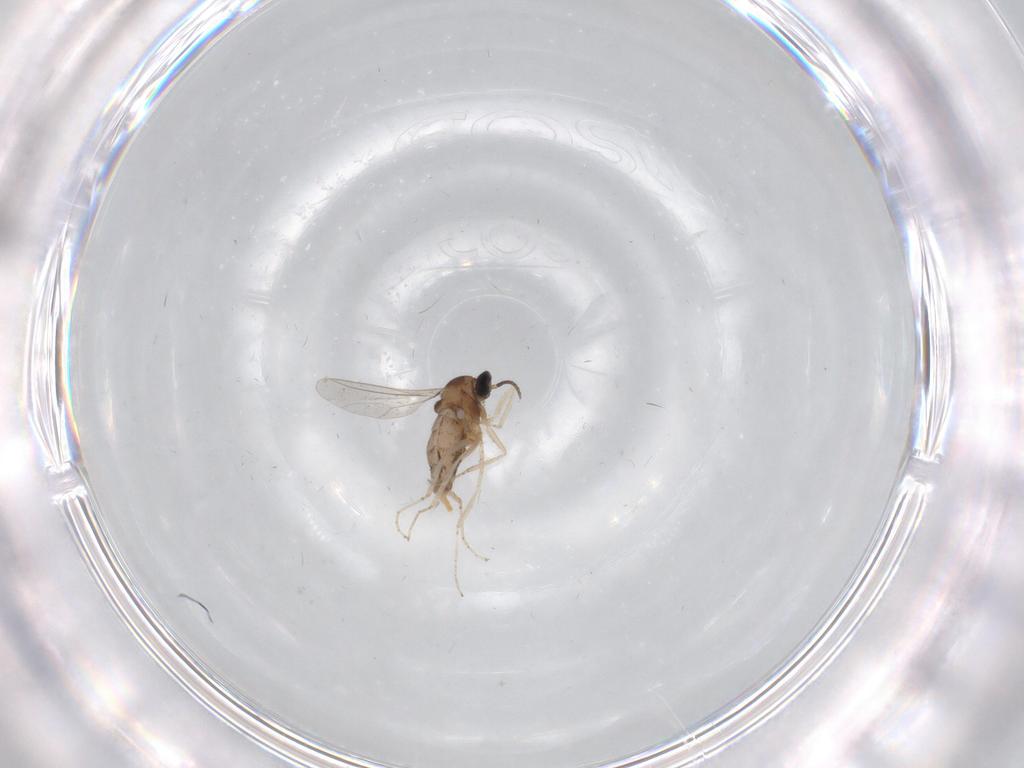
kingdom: Animalia
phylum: Arthropoda
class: Insecta
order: Diptera
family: Cecidomyiidae
